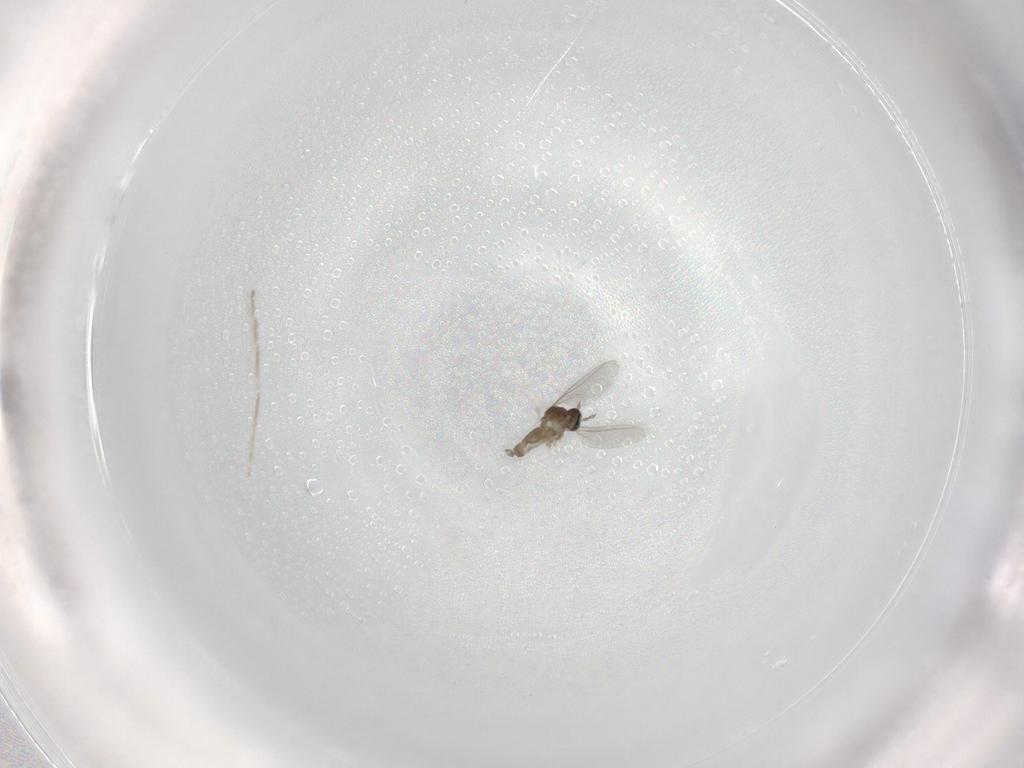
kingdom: Animalia
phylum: Arthropoda
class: Insecta
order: Diptera
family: Cecidomyiidae
